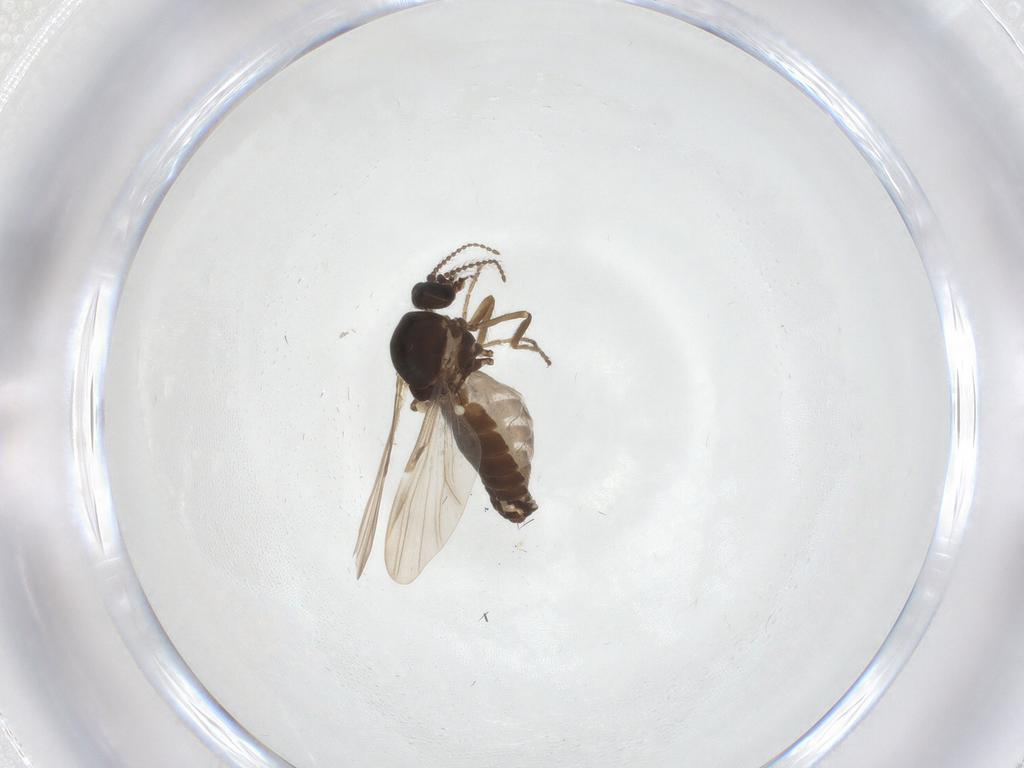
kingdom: Animalia
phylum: Arthropoda
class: Insecta
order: Diptera
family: Ceratopogonidae
